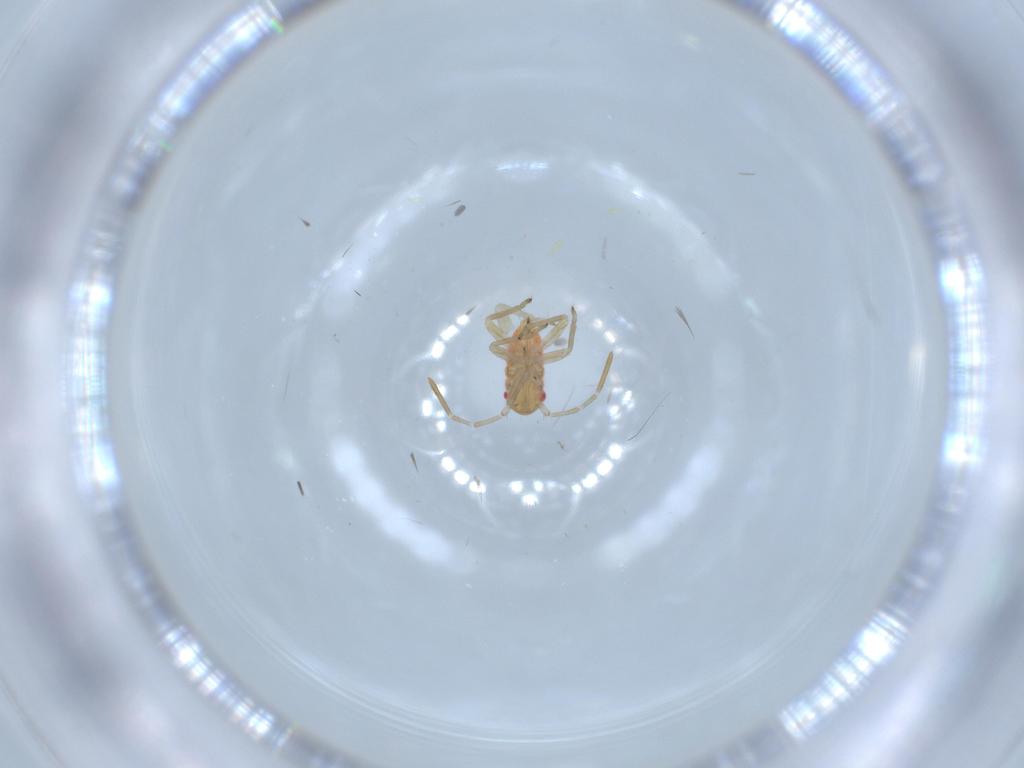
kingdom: Animalia
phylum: Arthropoda
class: Insecta
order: Hemiptera
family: Miridae
